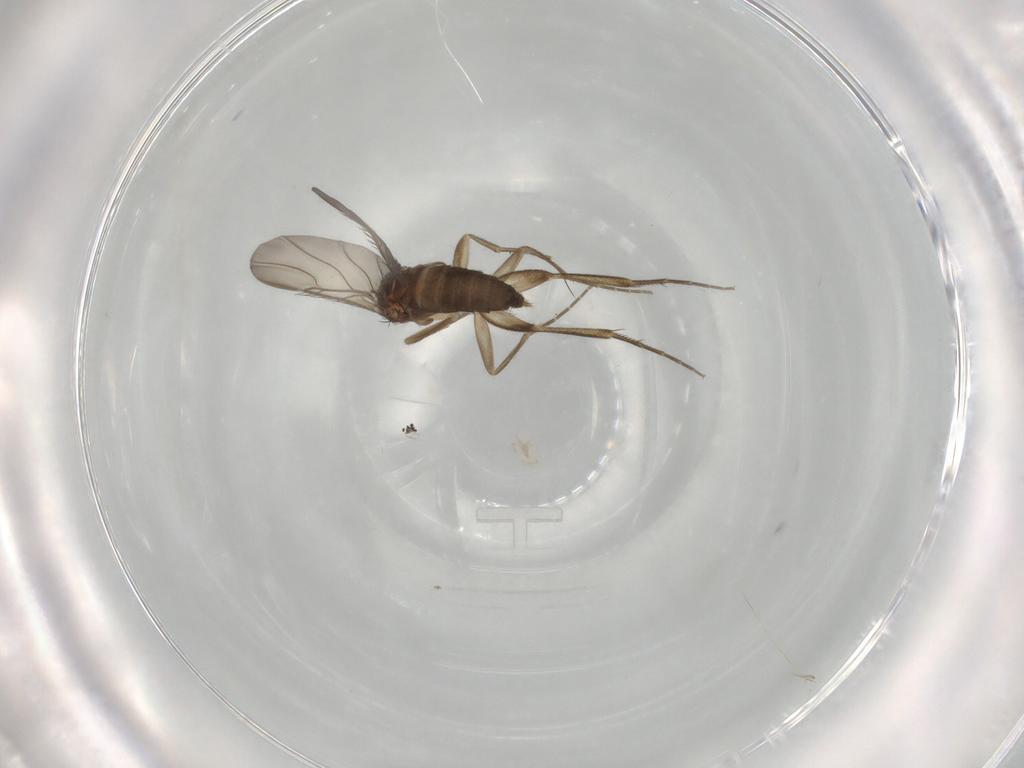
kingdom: Animalia
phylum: Arthropoda
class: Insecta
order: Diptera
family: Phoridae
